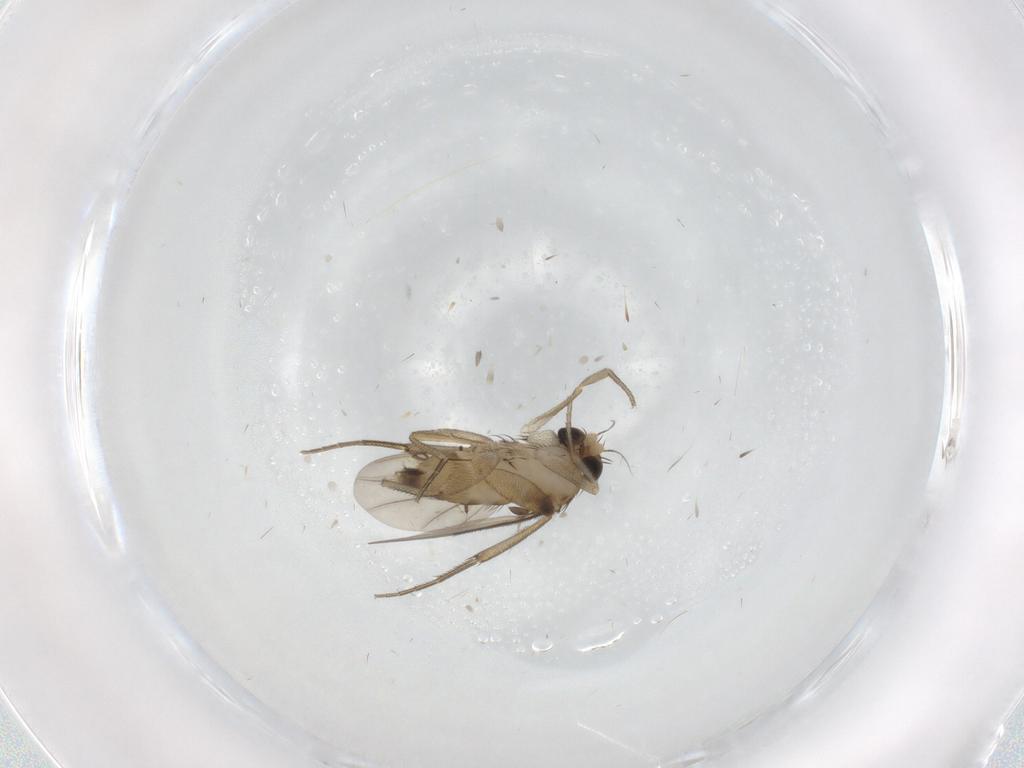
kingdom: Animalia
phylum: Arthropoda
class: Insecta
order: Diptera
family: Phoridae
